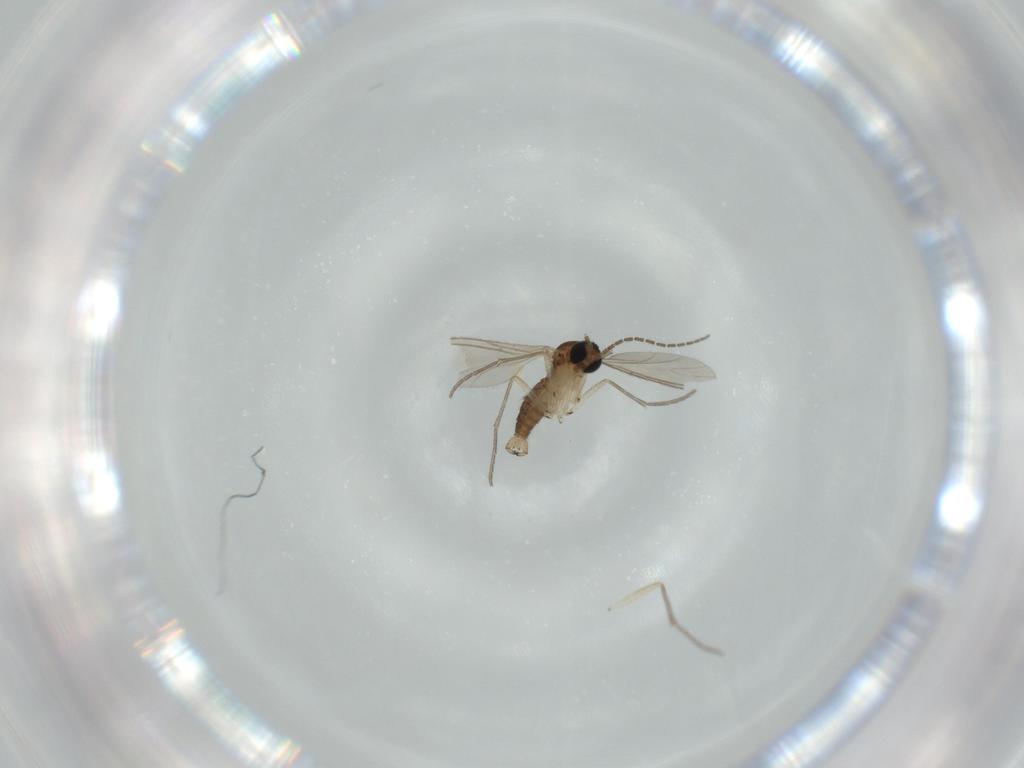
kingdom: Animalia
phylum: Arthropoda
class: Insecta
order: Diptera
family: Sciaridae
